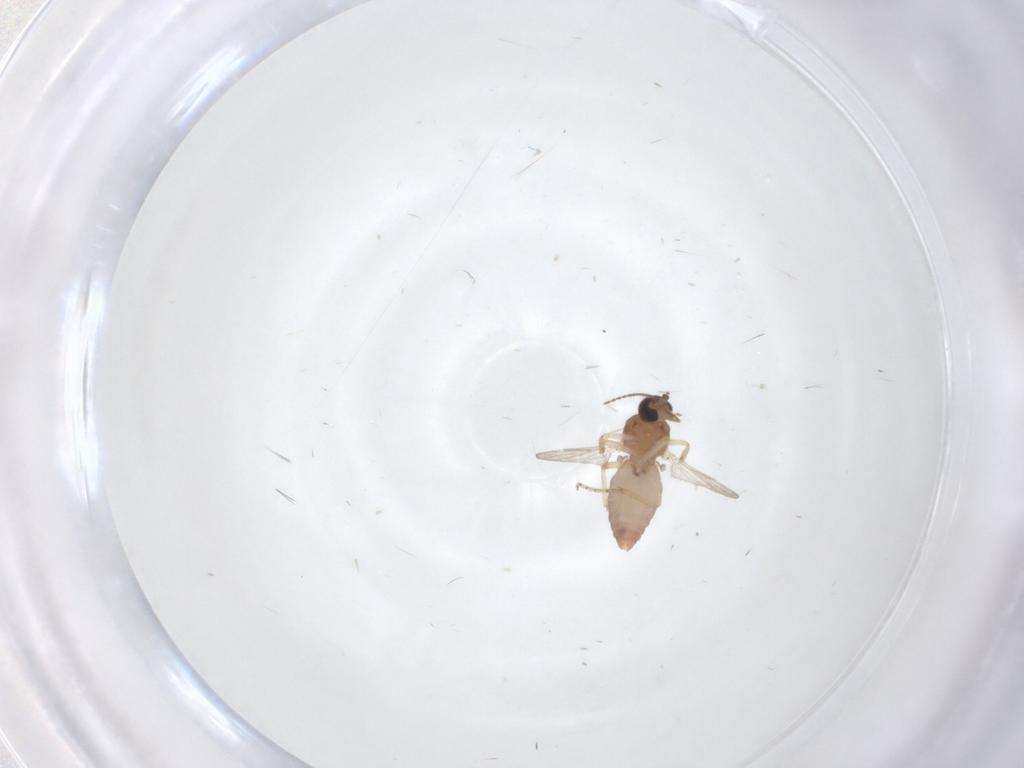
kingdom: Animalia
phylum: Arthropoda
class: Insecta
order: Diptera
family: Ceratopogonidae
